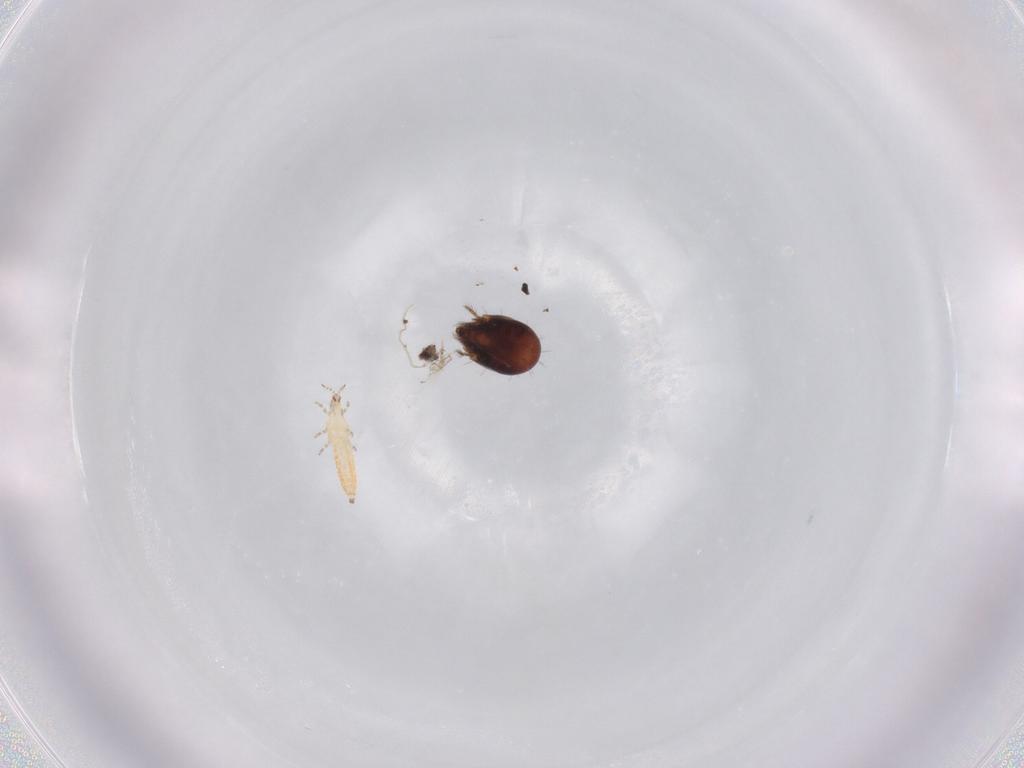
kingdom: Animalia
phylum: Arthropoda
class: Insecta
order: Thysanoptera
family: Thripidae
